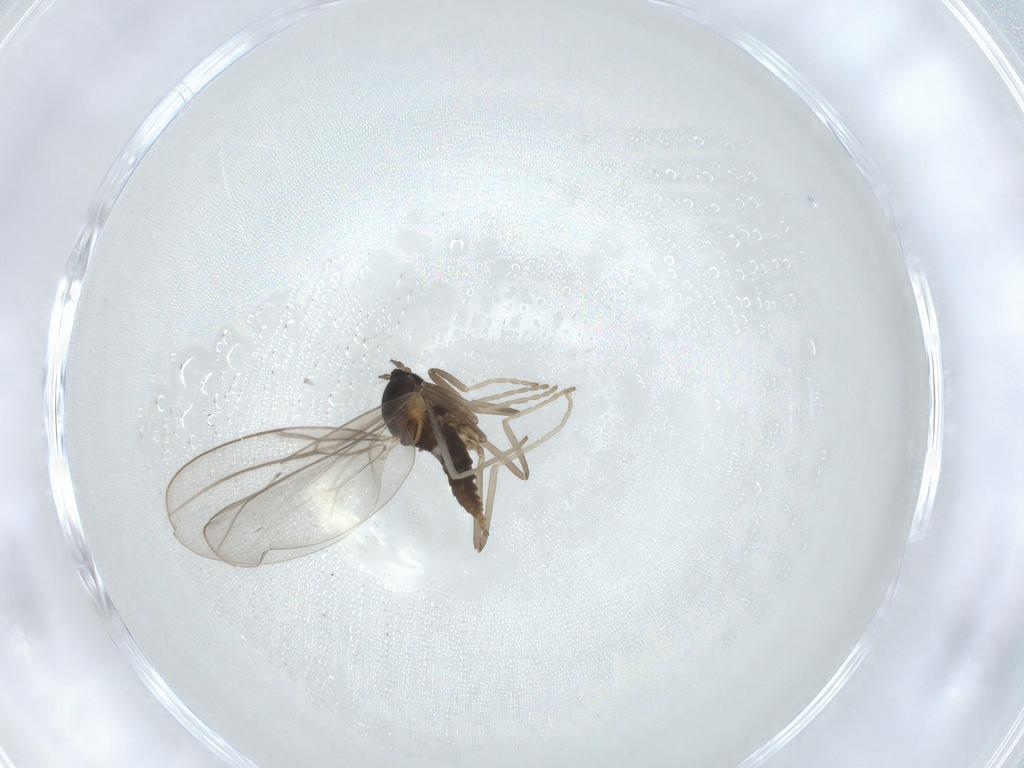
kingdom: Animalia
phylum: Arthropoda
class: Insecta
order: Diptera
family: Cecidomyiidae
